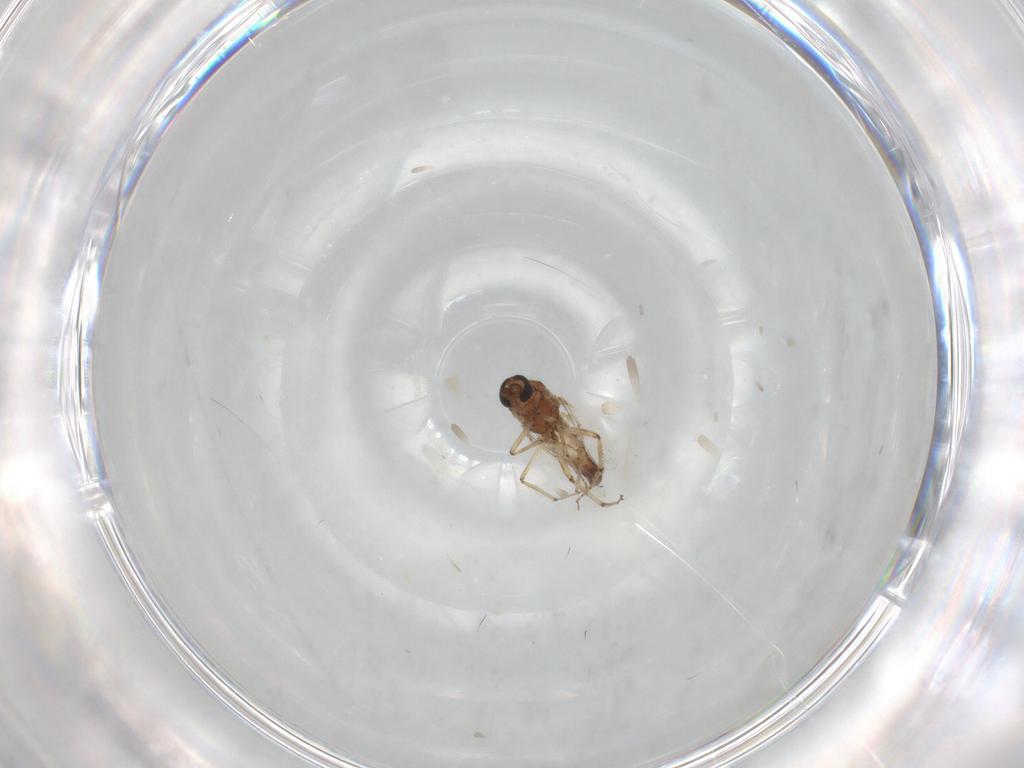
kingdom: Animalia
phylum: Arthropoda
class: Insecta
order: Diptera
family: Ceratopogonidae
